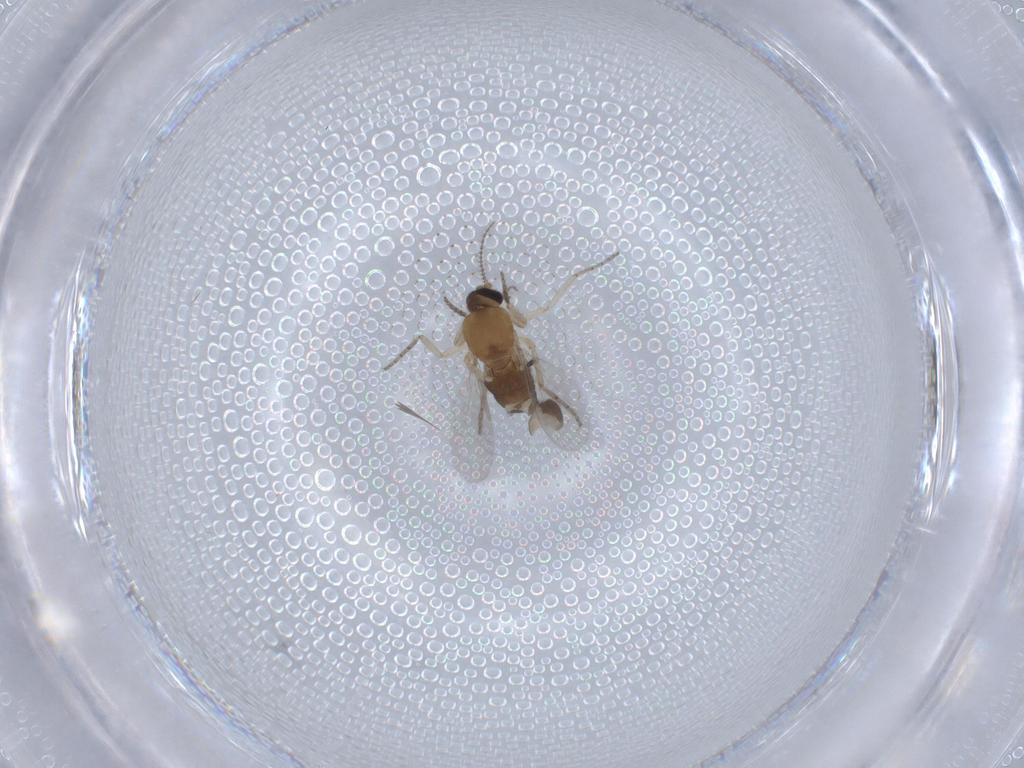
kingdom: Animalia
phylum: Arthropoda
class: Insecta
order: Diptera
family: Ceratopogonidae
